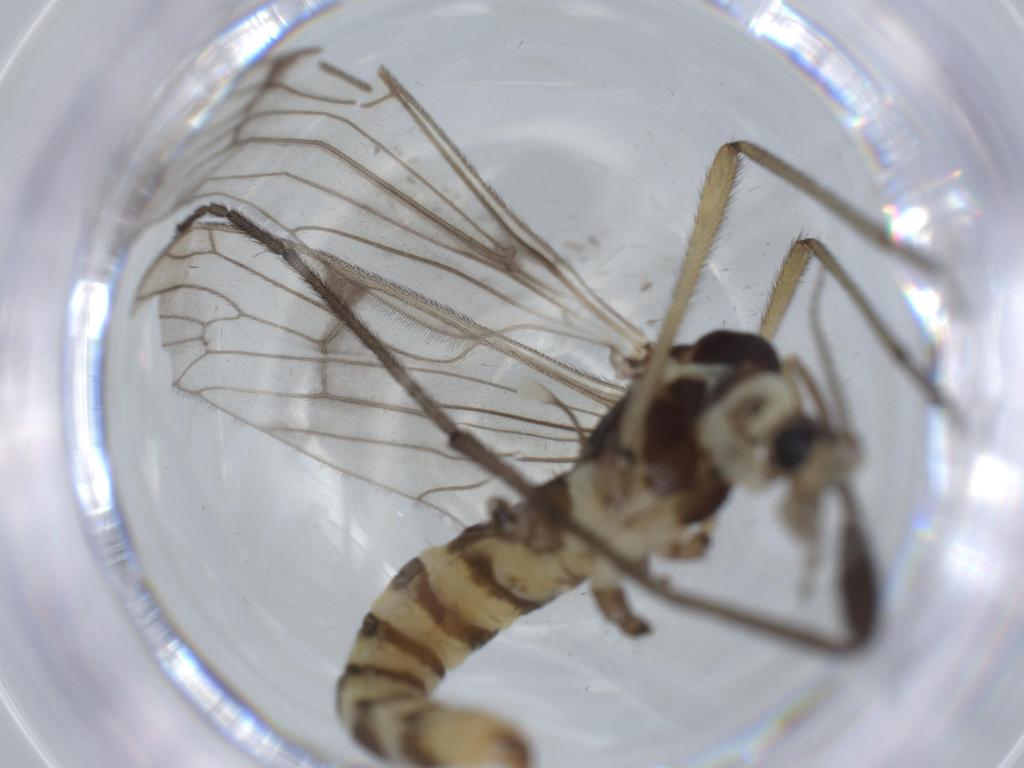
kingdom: Animalia
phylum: Arthropoda
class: Insecta
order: Diptera
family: Limoniidae
